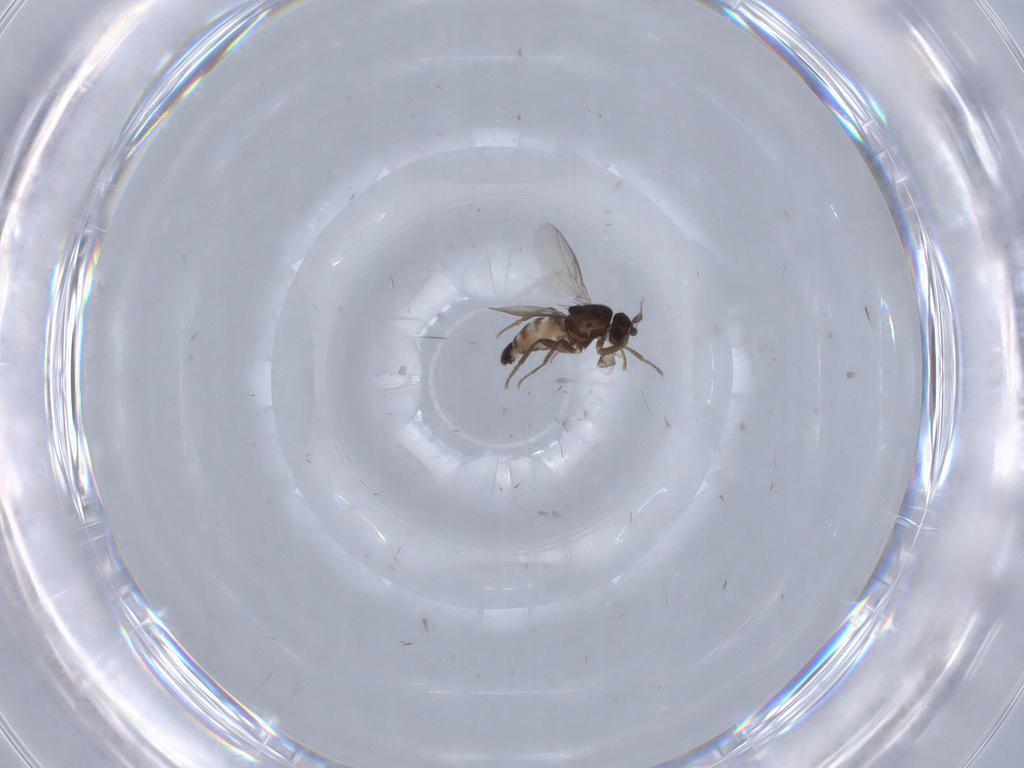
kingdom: Animalia
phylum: Arthropoda
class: Insecta
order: Diptera
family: Sphaeroceridae
